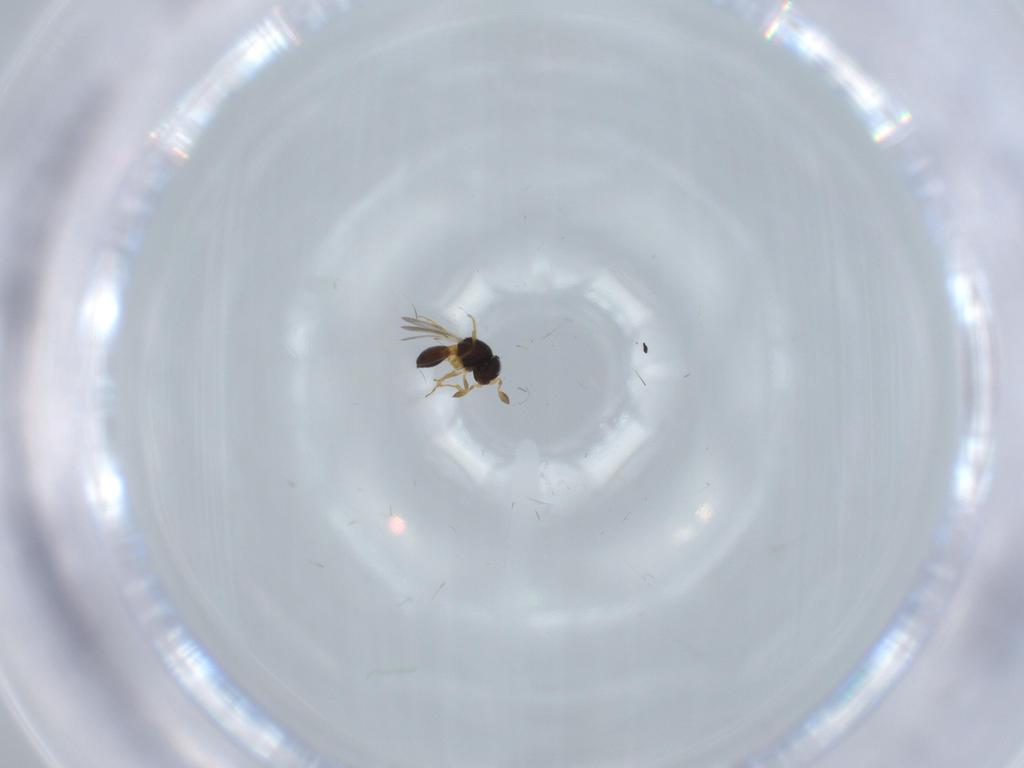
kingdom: Animalia
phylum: Arthropoda
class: Insecta
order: Hymenoptera
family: Scelionidae
